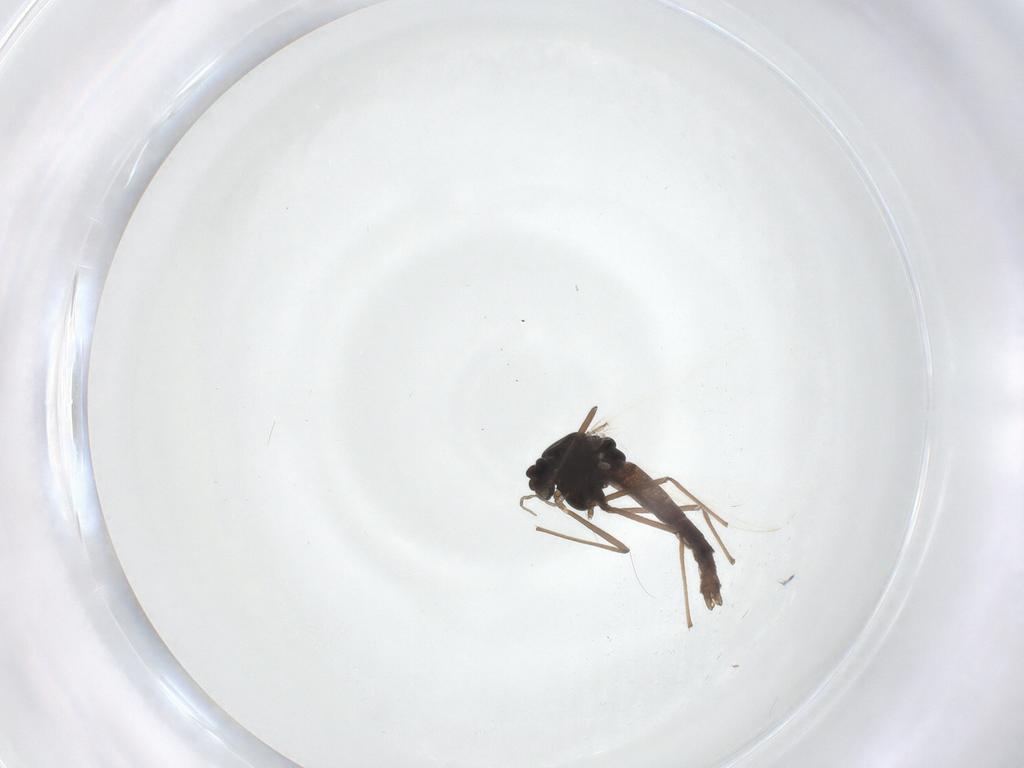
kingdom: Animalia
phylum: Arthropoda
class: Insecta
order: Diptera
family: Chironomidae
